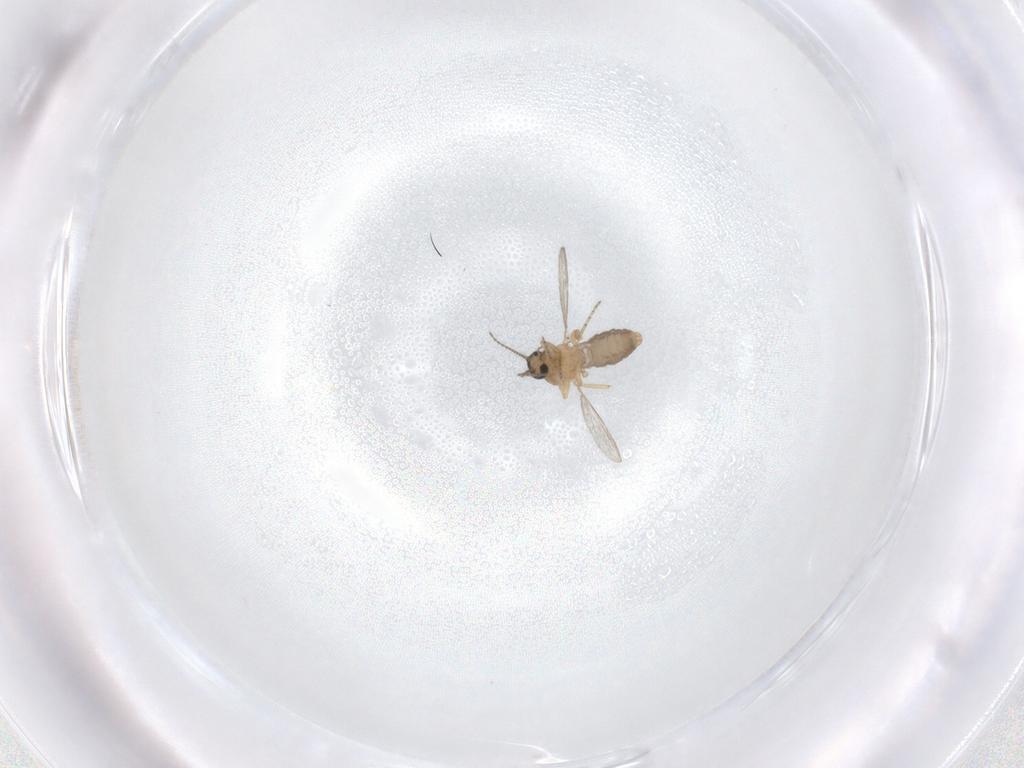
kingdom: Animalia
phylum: Arthropoda
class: Insecta
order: Diptera
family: Ceratopogonidae
